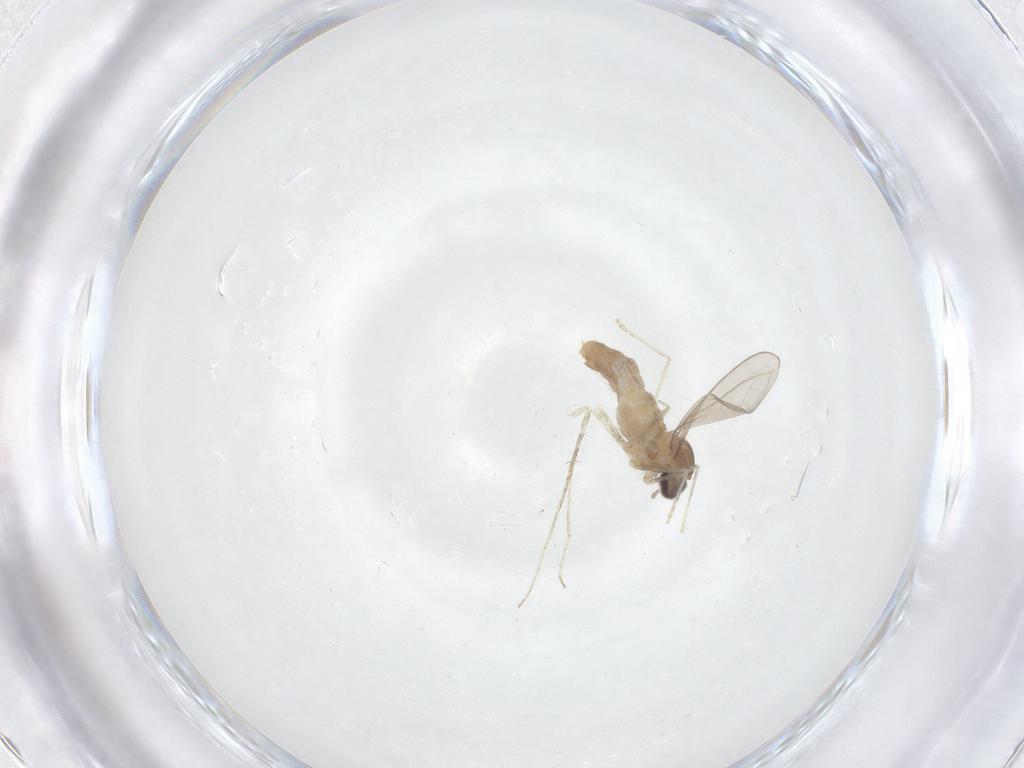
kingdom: Animalia
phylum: Arthropoda
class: Insecta
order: Diptera
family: Cecidomyiidae
